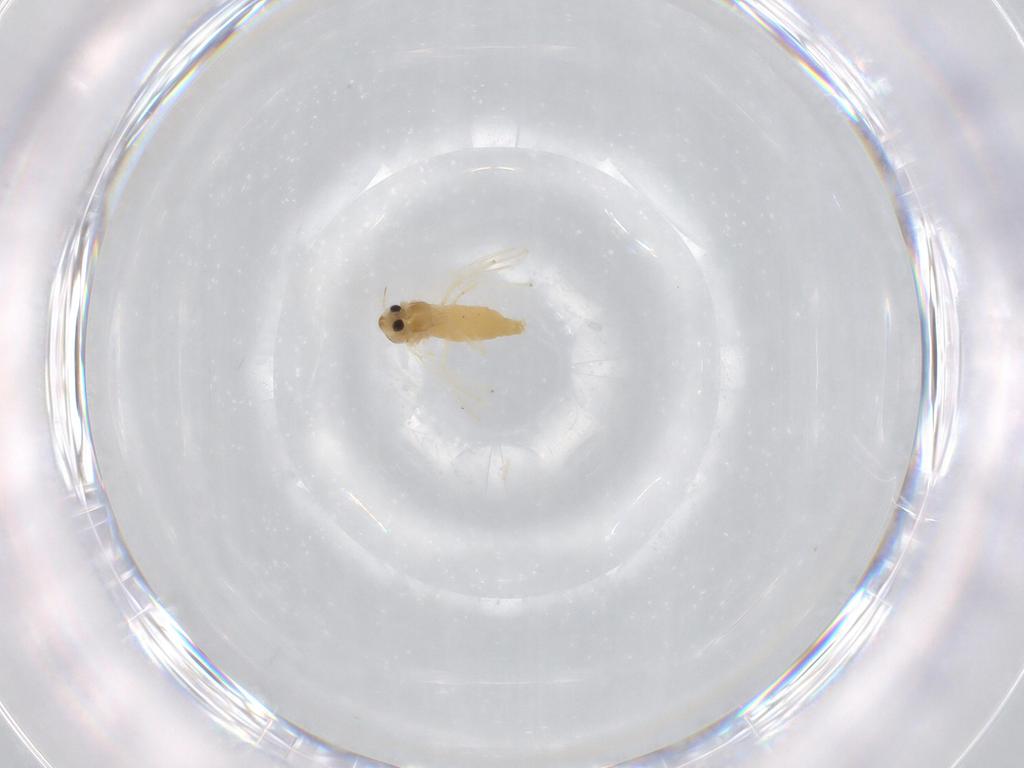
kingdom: Animalia
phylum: Arthropoda
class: Insecta
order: Diptera
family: Chironomidae
